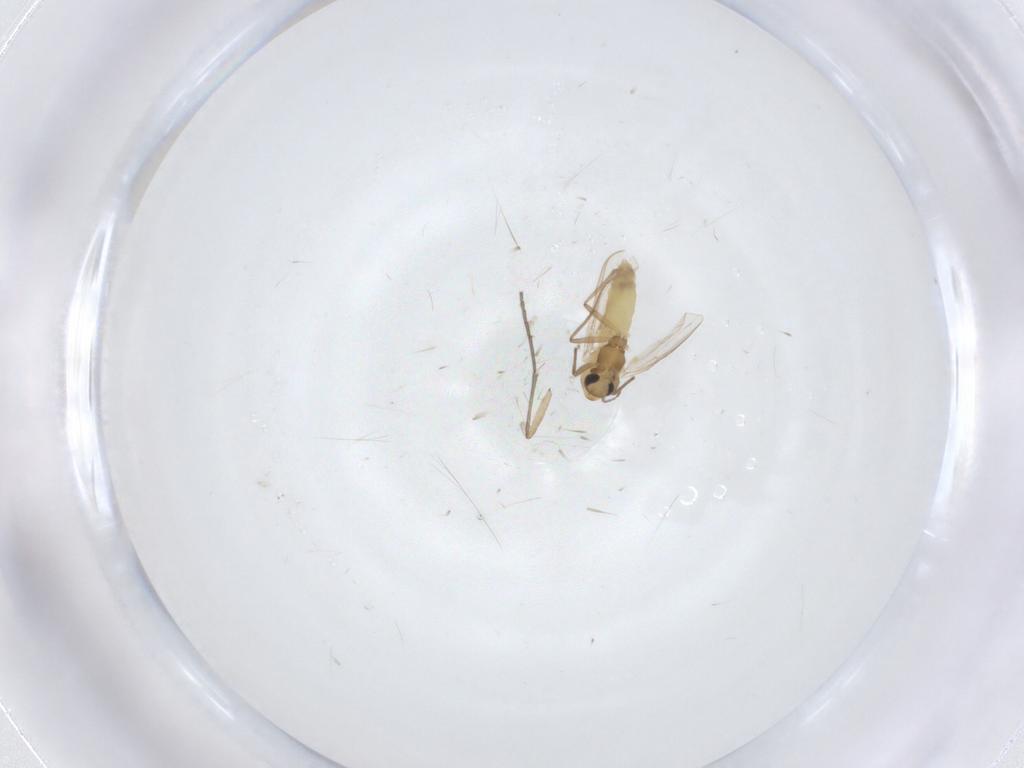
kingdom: Animalia
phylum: Arthropoda
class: Insecta
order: Diptera
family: Chironomidae
